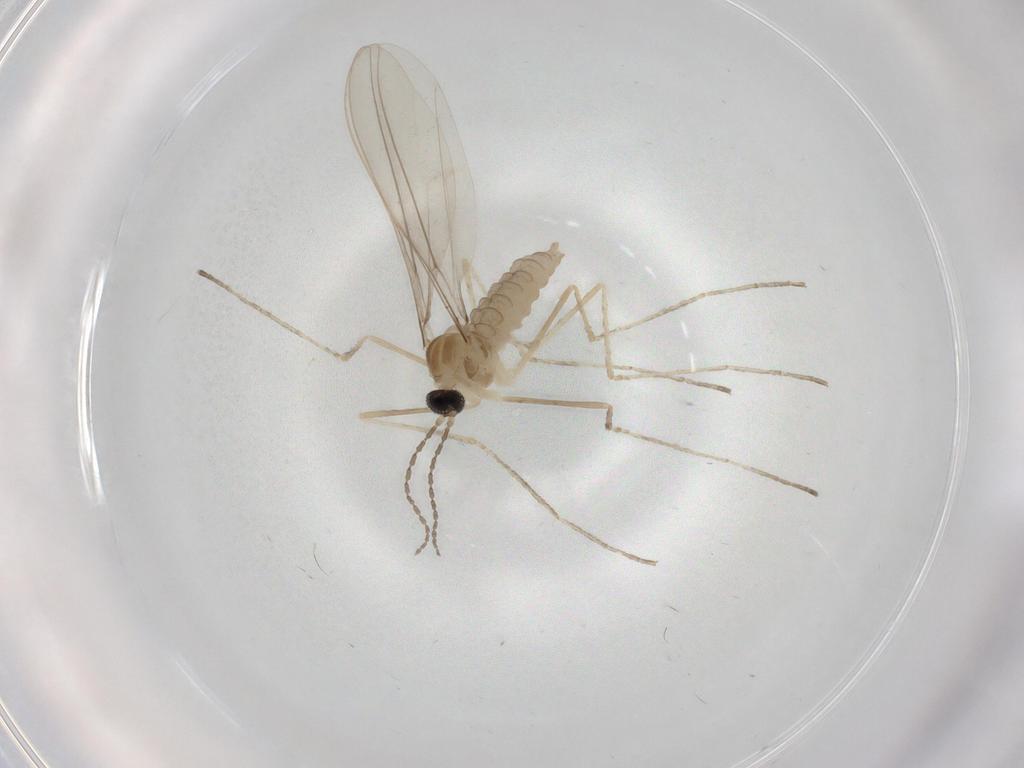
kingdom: Animalia
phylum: Arthropoda
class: Insecta
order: Diptera
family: Cecidomyiidae
